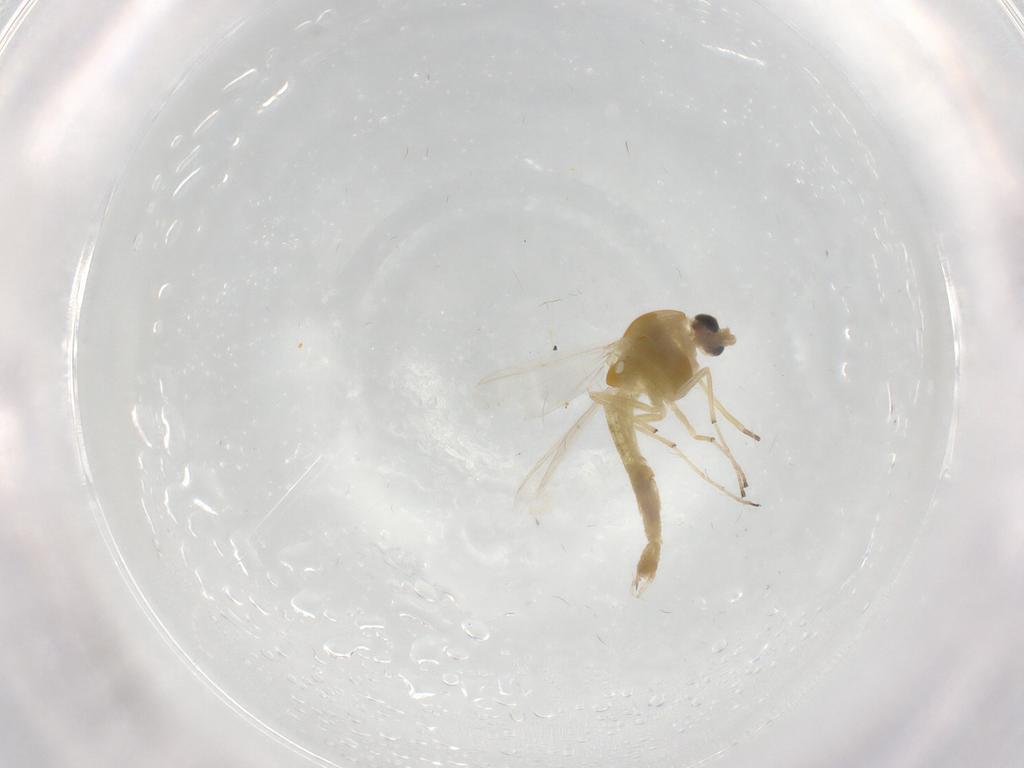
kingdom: Animalia
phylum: Arthropoda
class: Insecta
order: Diptera
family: Chironomidae
